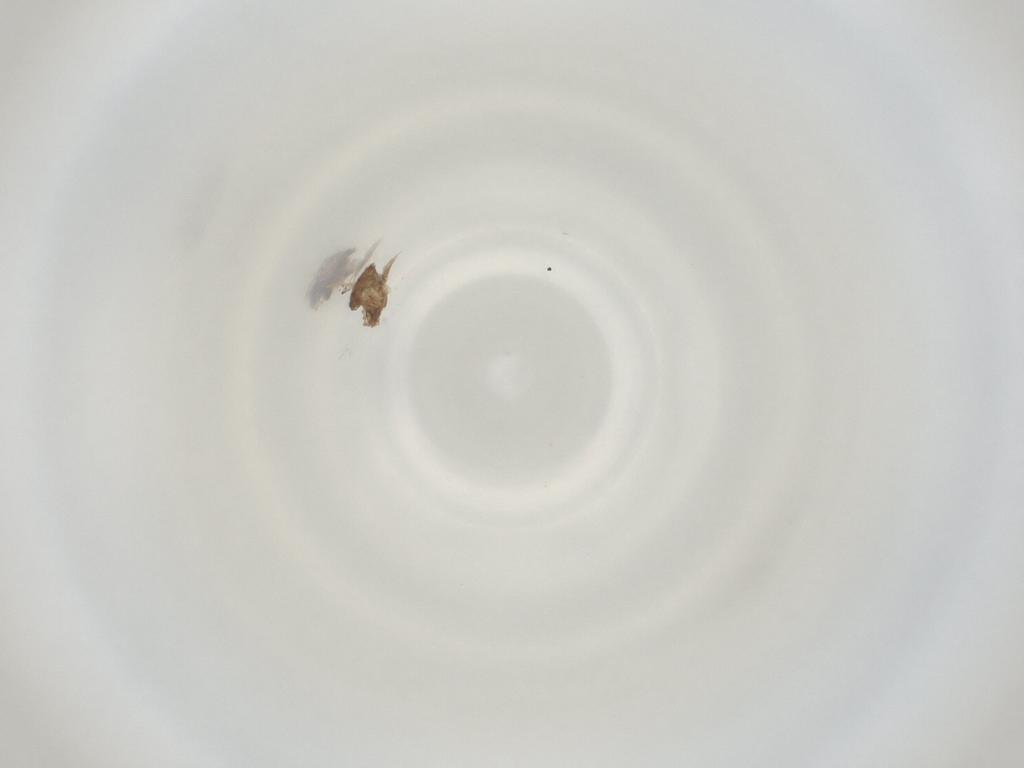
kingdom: Animalia
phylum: Arthropoda
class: Insecta
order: Diptera
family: Cecidomyiidae
